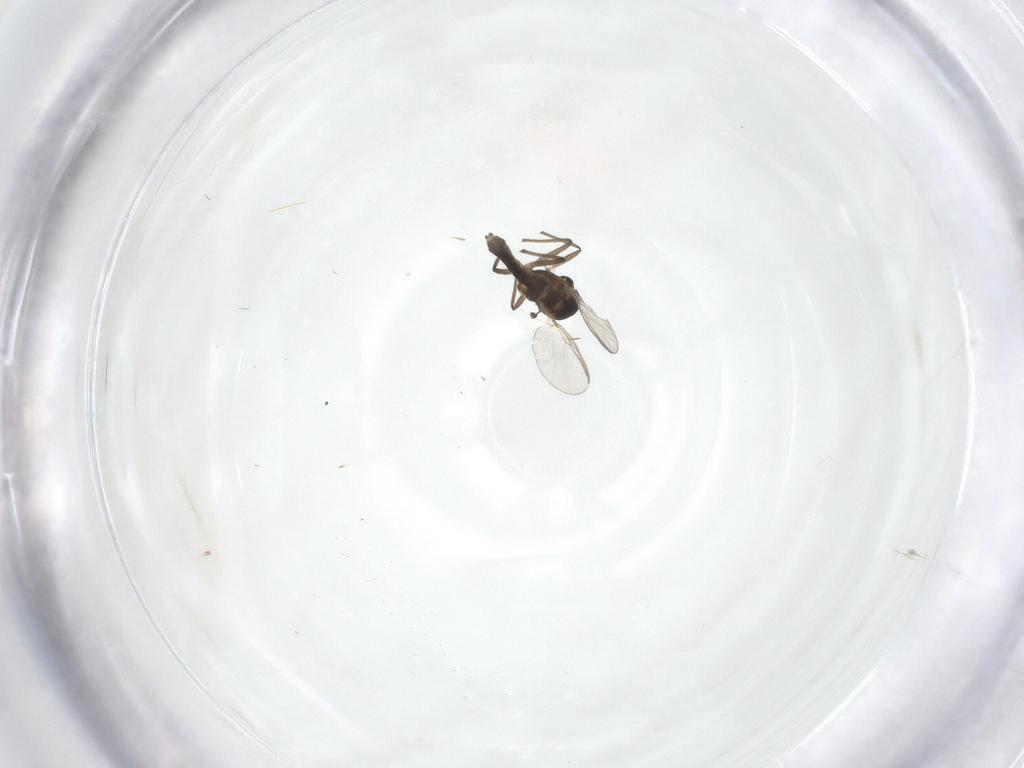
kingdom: Animalia
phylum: Arthropoda
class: Insecta
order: Diptera
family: Chironomidae
